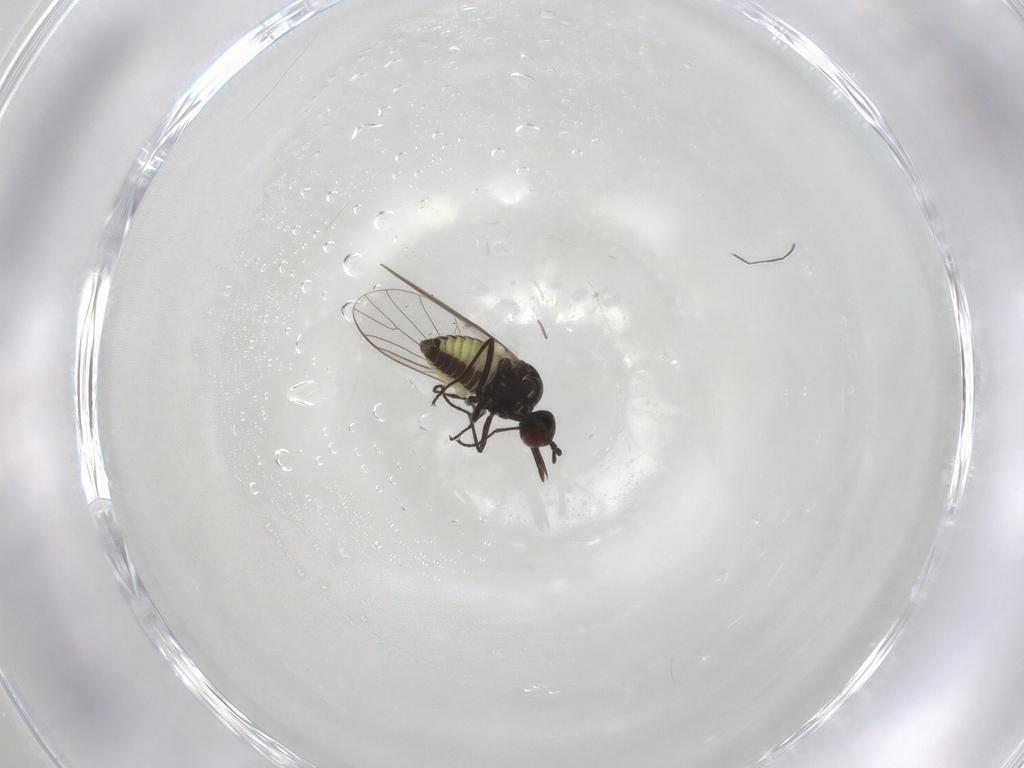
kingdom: Animalia
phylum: Arthropoda
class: Insecta
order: Diptera
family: Bombyliidae
